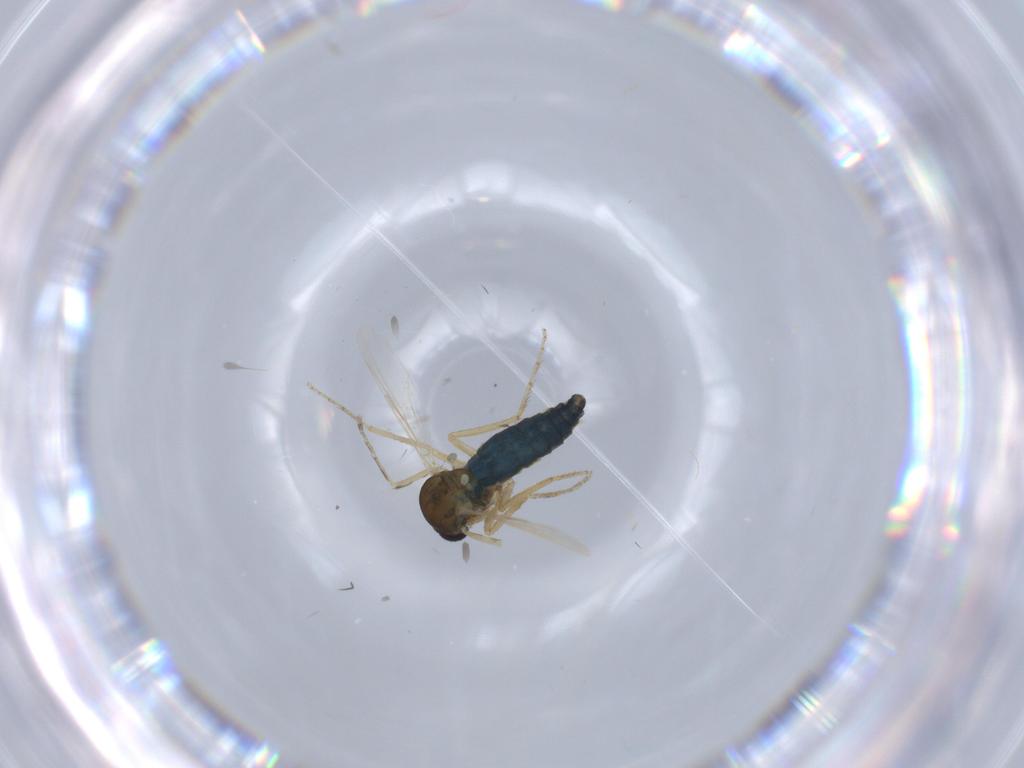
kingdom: Animalia
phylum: Arthropoda
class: Insecta
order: Diptera
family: Ceratopogonidae
